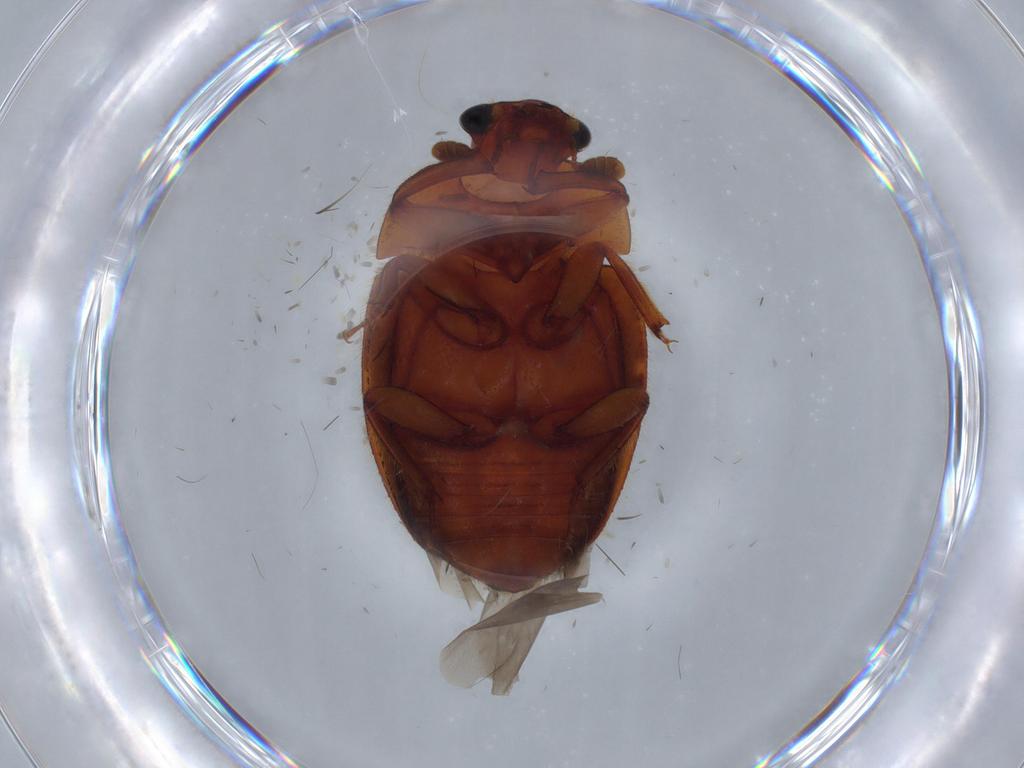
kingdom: Animalia
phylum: Arthropoda
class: Insecta
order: Coleoptera
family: Nitidulidae
